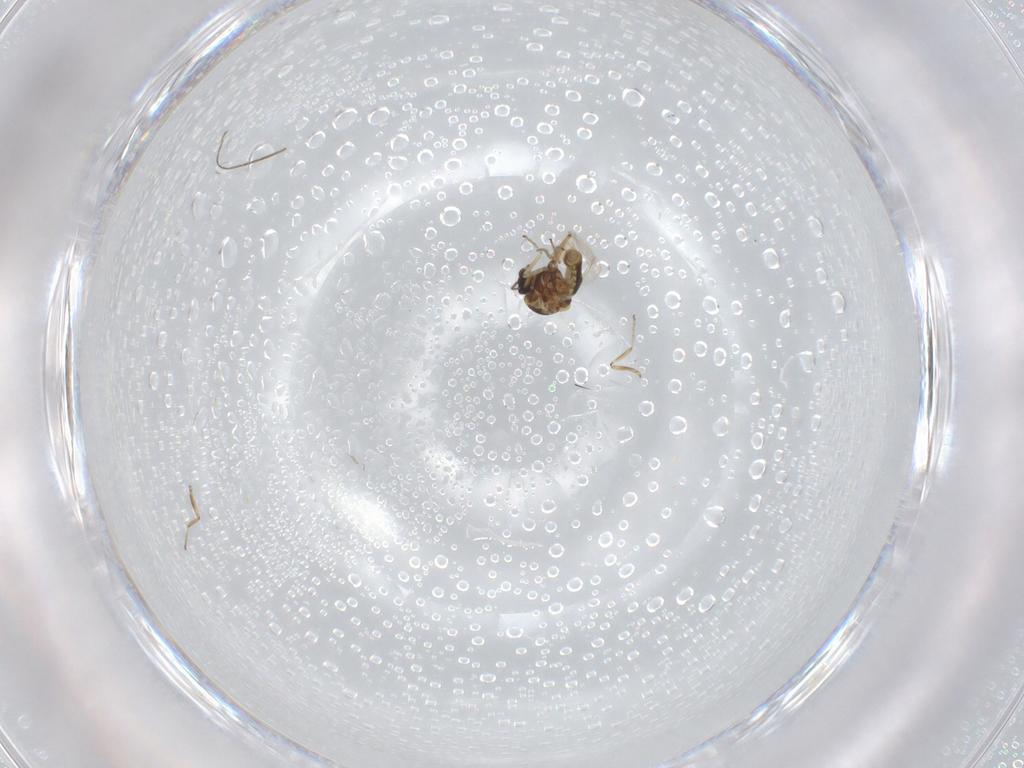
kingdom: Animalia
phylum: Arthropoda
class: Insecta
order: Diptera
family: Ceratopogonidae
